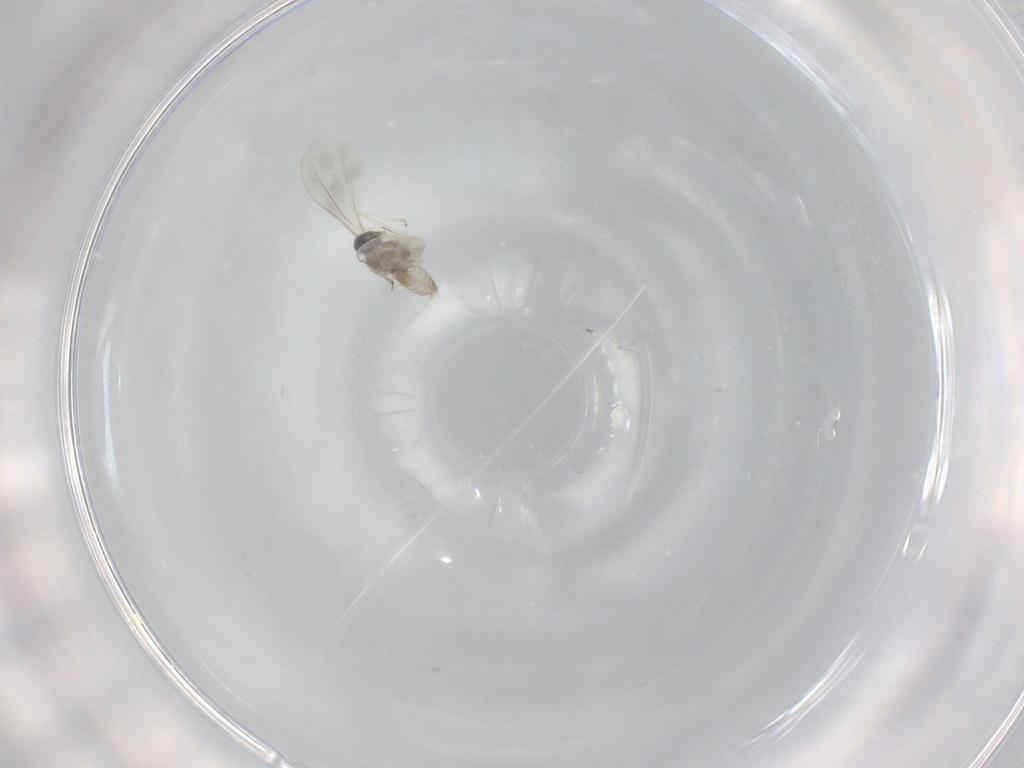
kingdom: Animalia
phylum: Arthropoda
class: Insecta
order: Diptera
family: Cecidomyiidae
